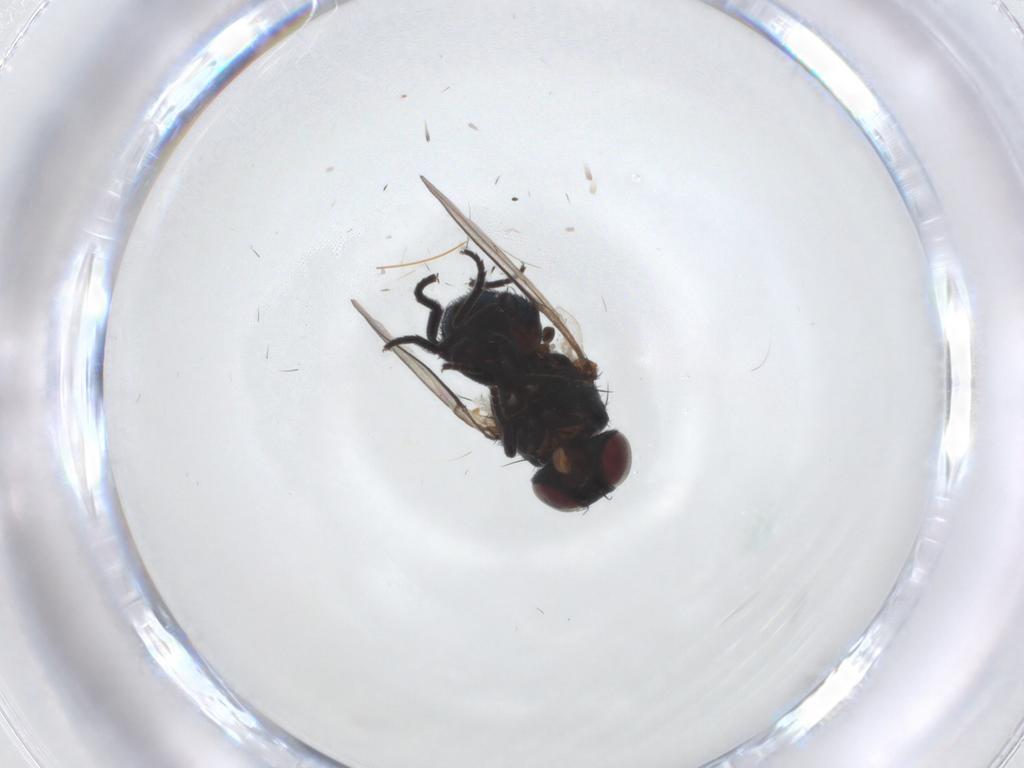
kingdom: Animalia
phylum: Arthropoda
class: Insecta
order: Diptera
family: Agromyzidae
